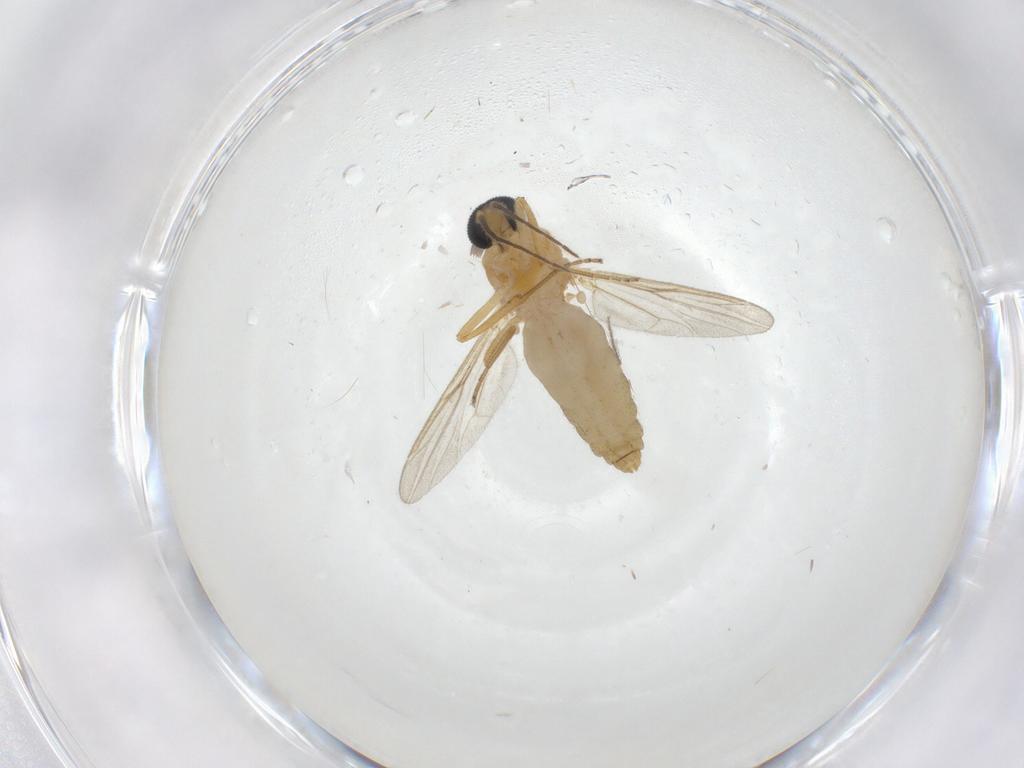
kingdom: Animalia
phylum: Arthropoda
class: Insecta
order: Diptera
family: Ceratopogonidae
